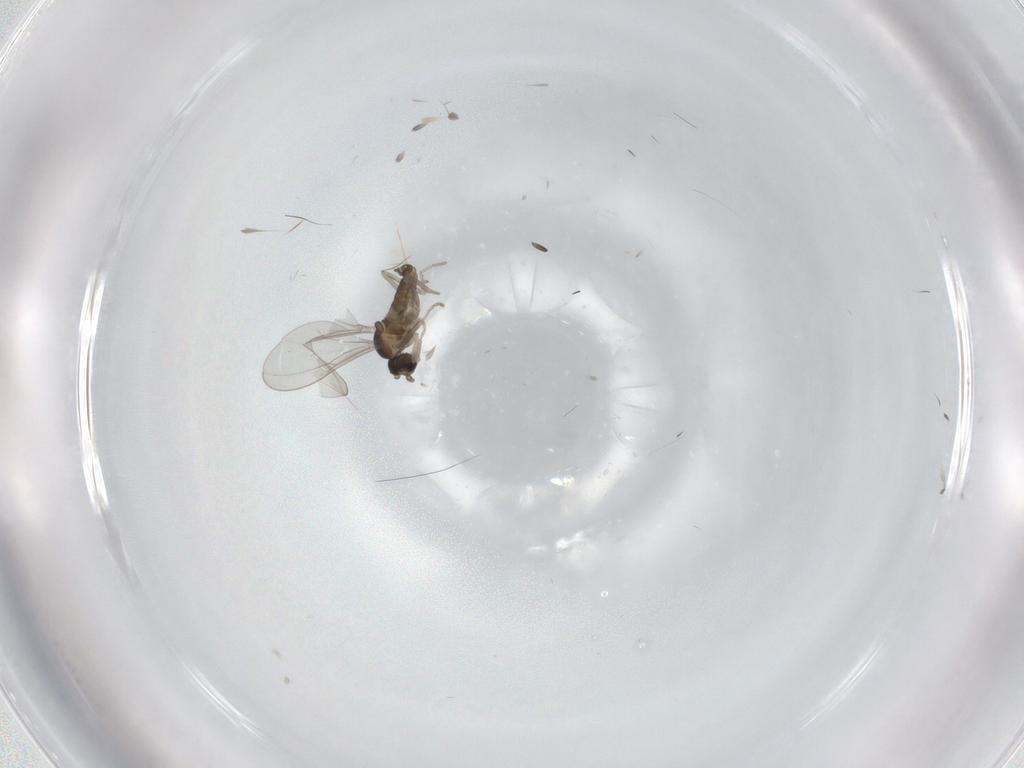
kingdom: Animalia
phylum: Arthropoda
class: Insecta
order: Diptera
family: Cecidomyiidae
